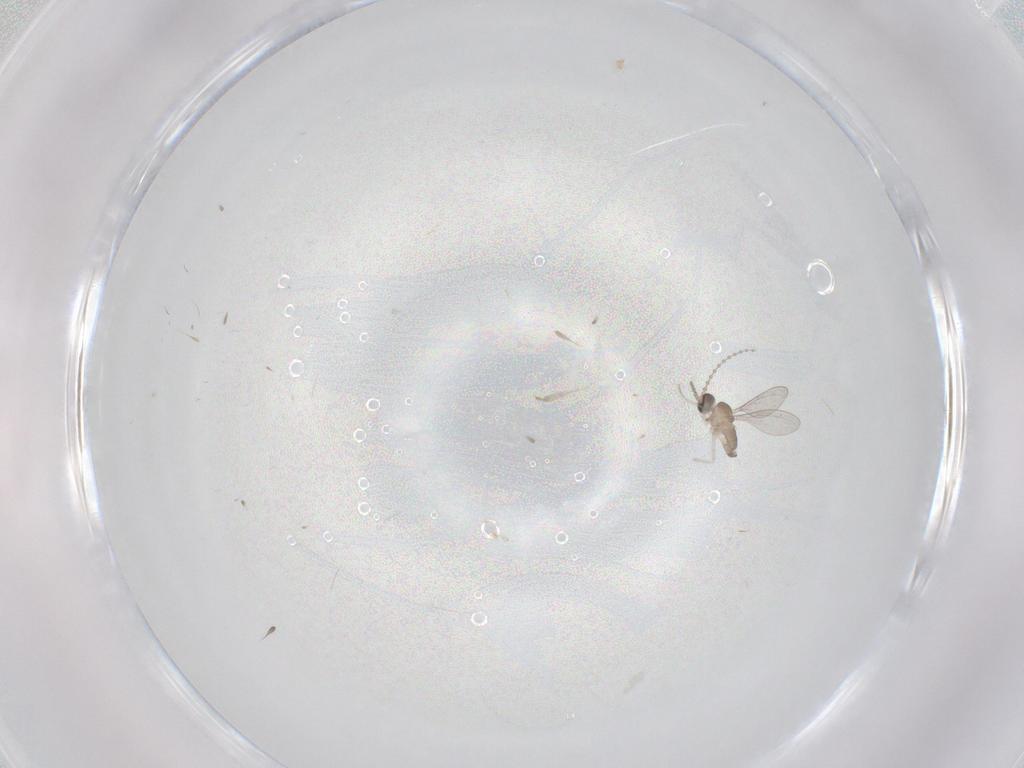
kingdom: Animalia
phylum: Arthropoda
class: Insecta
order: Diptera
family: Cecidomyiidae
